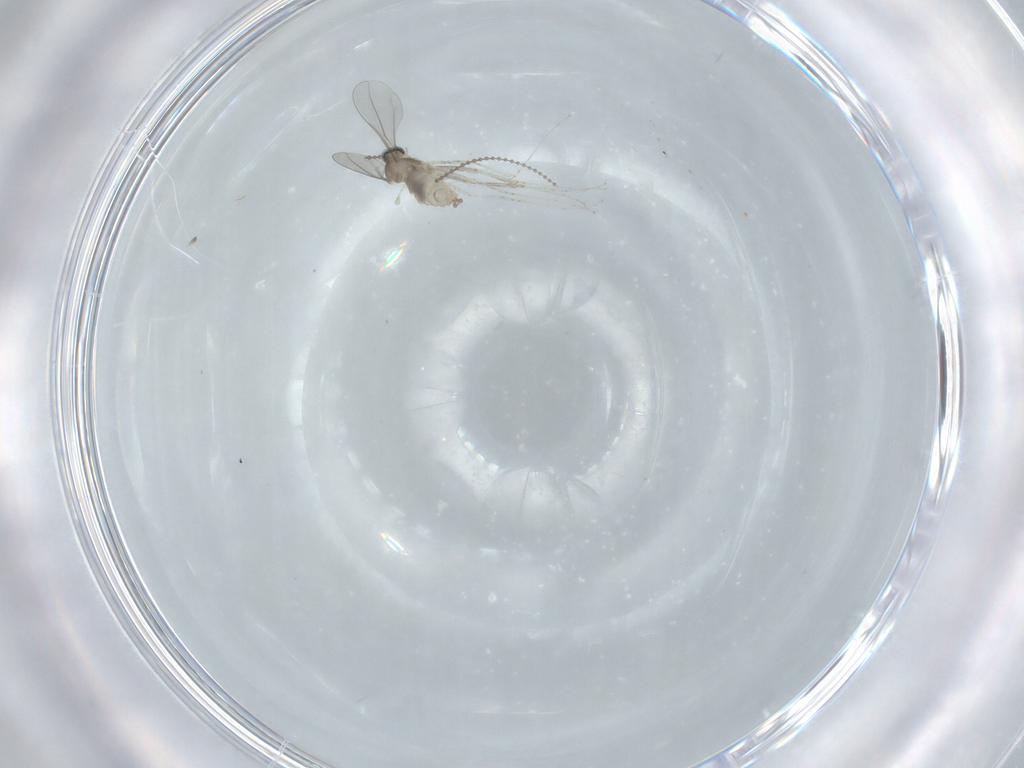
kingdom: Animalia
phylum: Arthropoda
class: Insecta
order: Diptera
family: Cecidomyiidae
